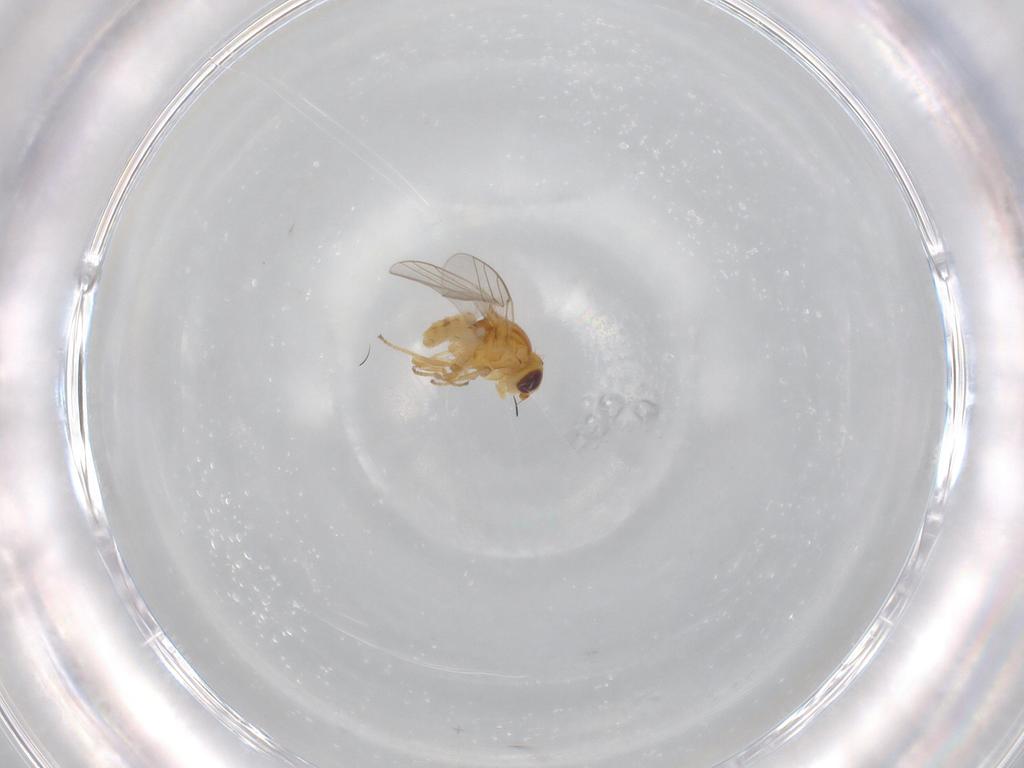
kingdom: Animalia
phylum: Arthropoda
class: Insecta
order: Diptera
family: Chloropidae
